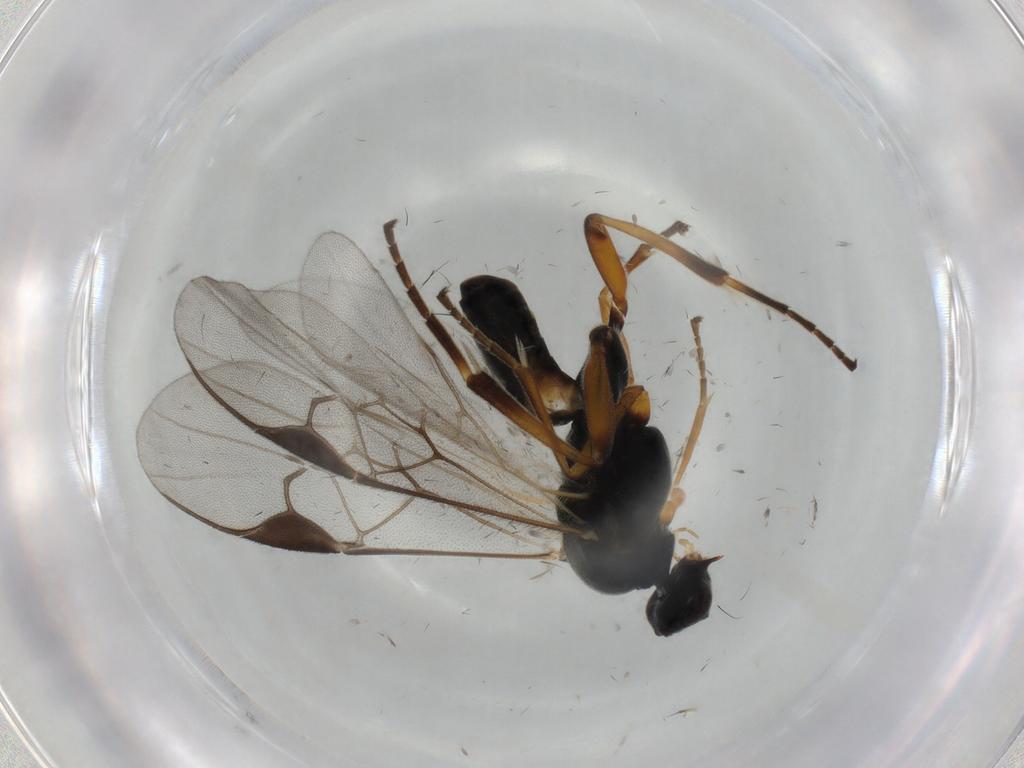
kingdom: Animalia
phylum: Arthropoda
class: Insecta
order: Hymenoptera
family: Braconidae
